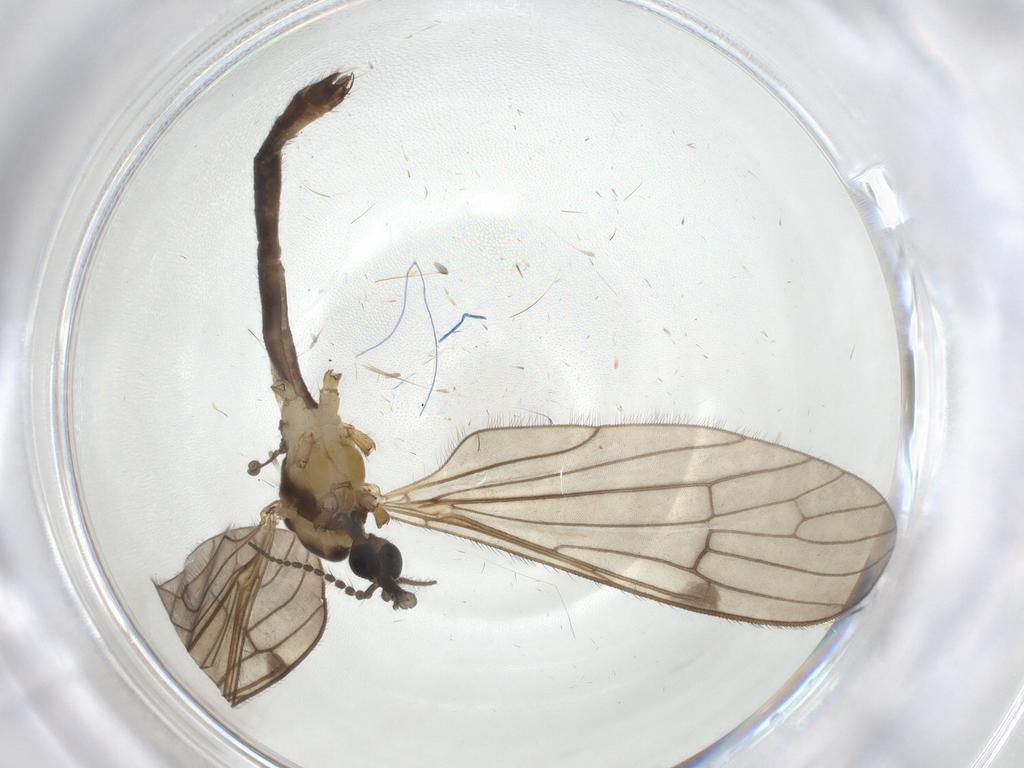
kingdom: Animalia
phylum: Arthropoda
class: Insecta
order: Diptera
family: Limoniidae
